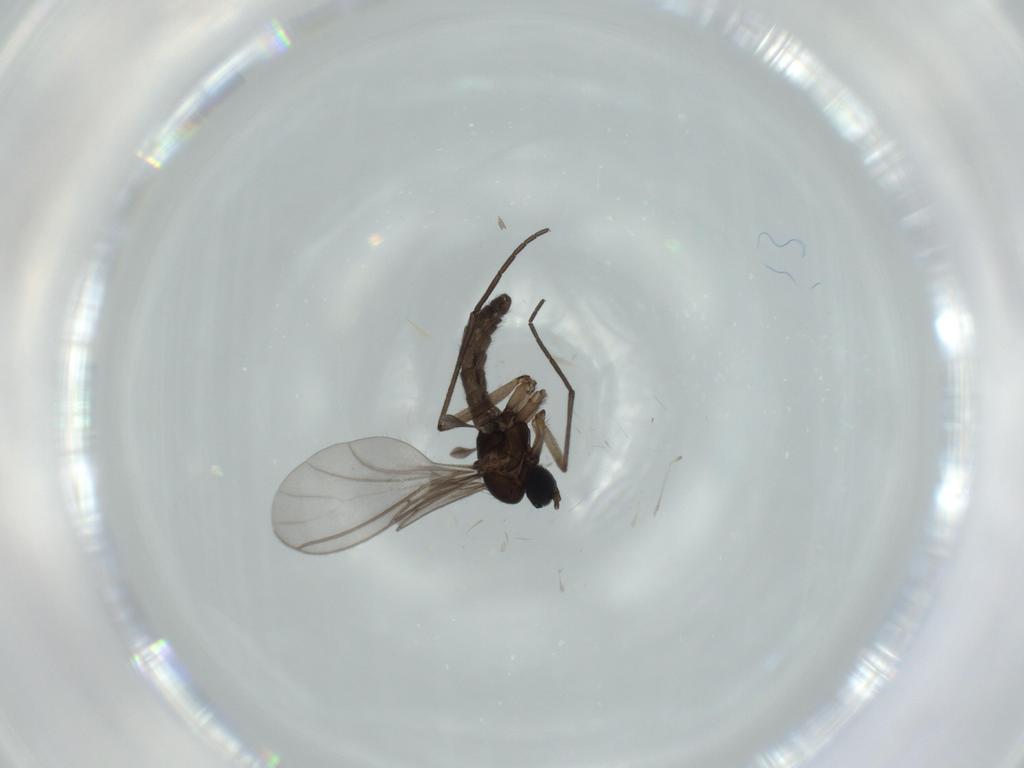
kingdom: Animalia
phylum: Arthropoda
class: Insecta
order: Diptera
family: Sciaridae
